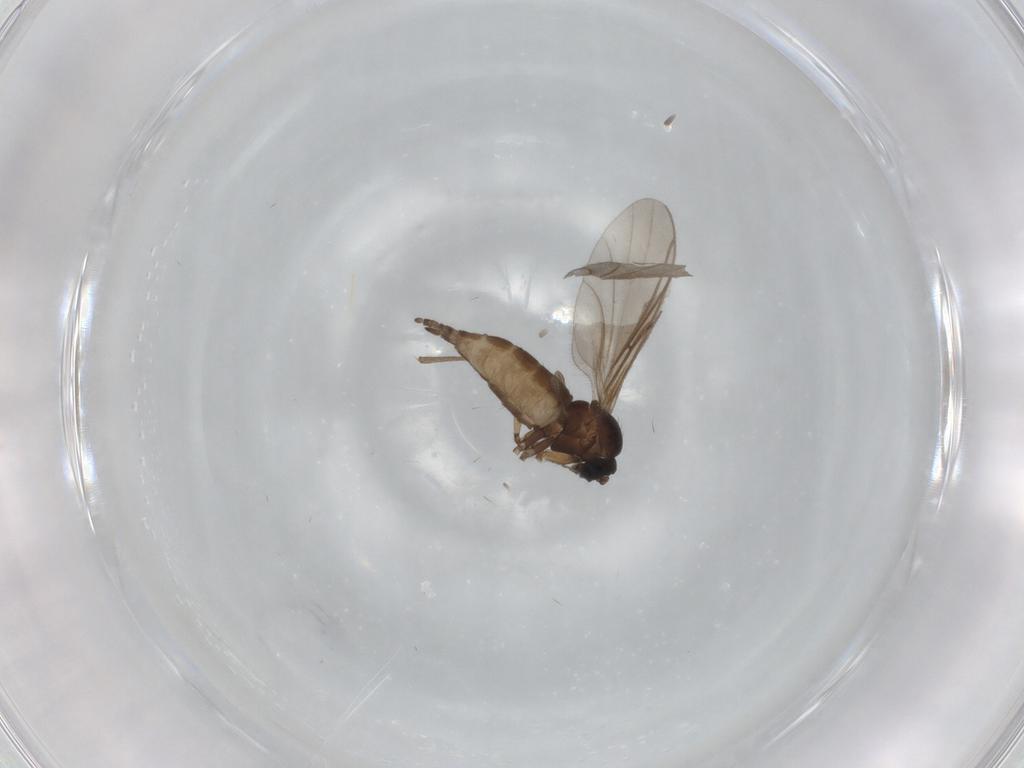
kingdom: Animalia
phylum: Arthropoda
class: Insecta
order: Diptera
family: Sciaridae
